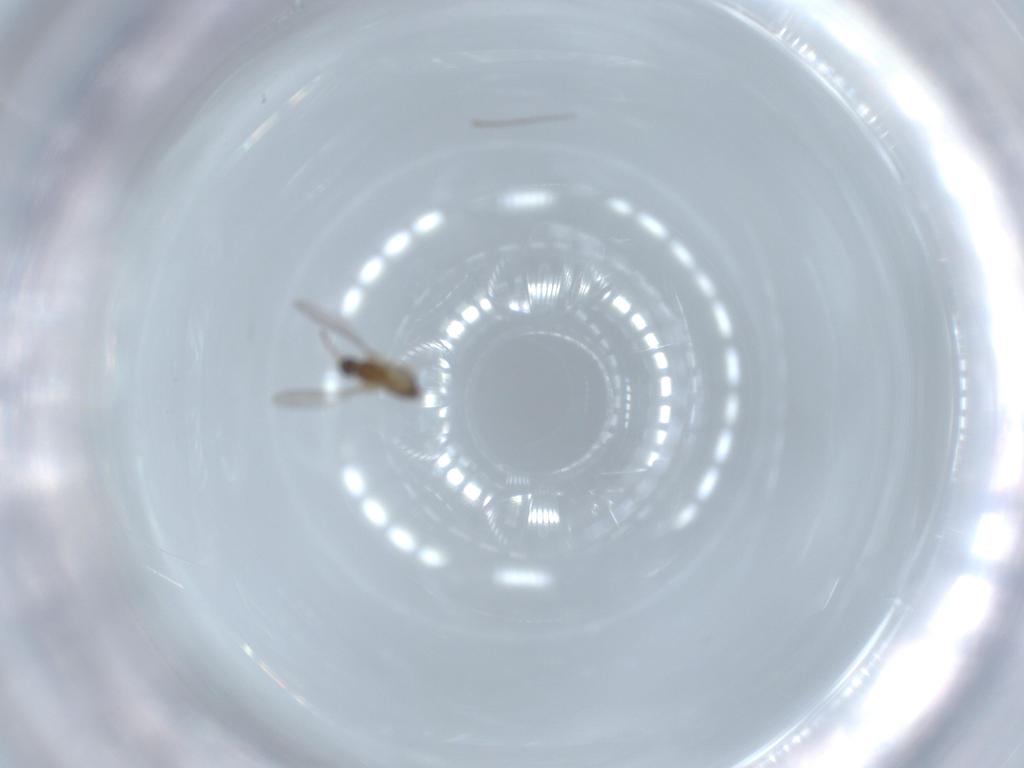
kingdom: Animalia
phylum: Arthropoda
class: Insecta
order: Diptera
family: Cecidomyiidae
